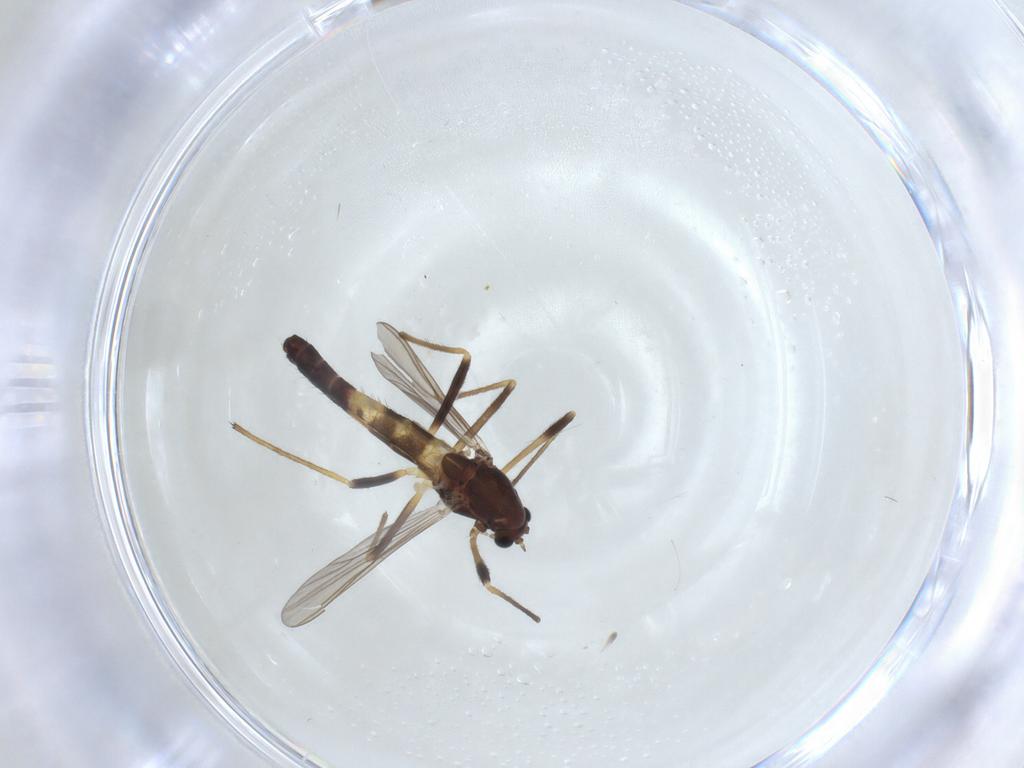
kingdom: Animalia
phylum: Arthropoda
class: Insecta
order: Diptera
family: Chironomidae
